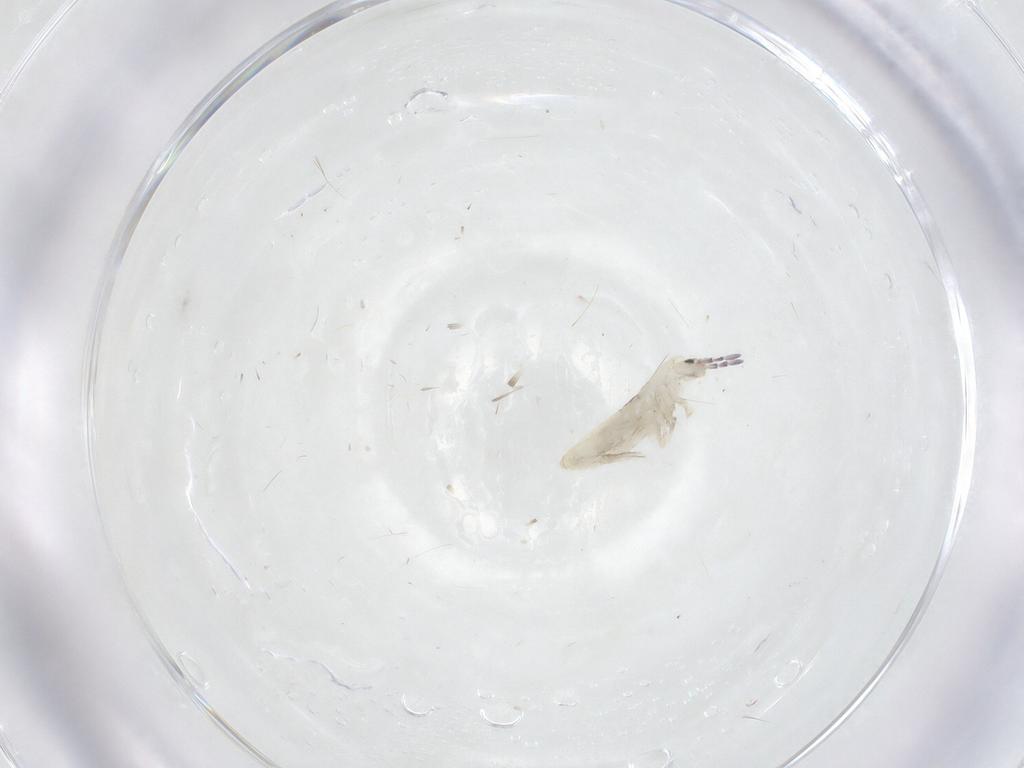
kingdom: Animalia
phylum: Arthropoda
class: Collembola
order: Entomobryomorpha
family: Entomobryidae
